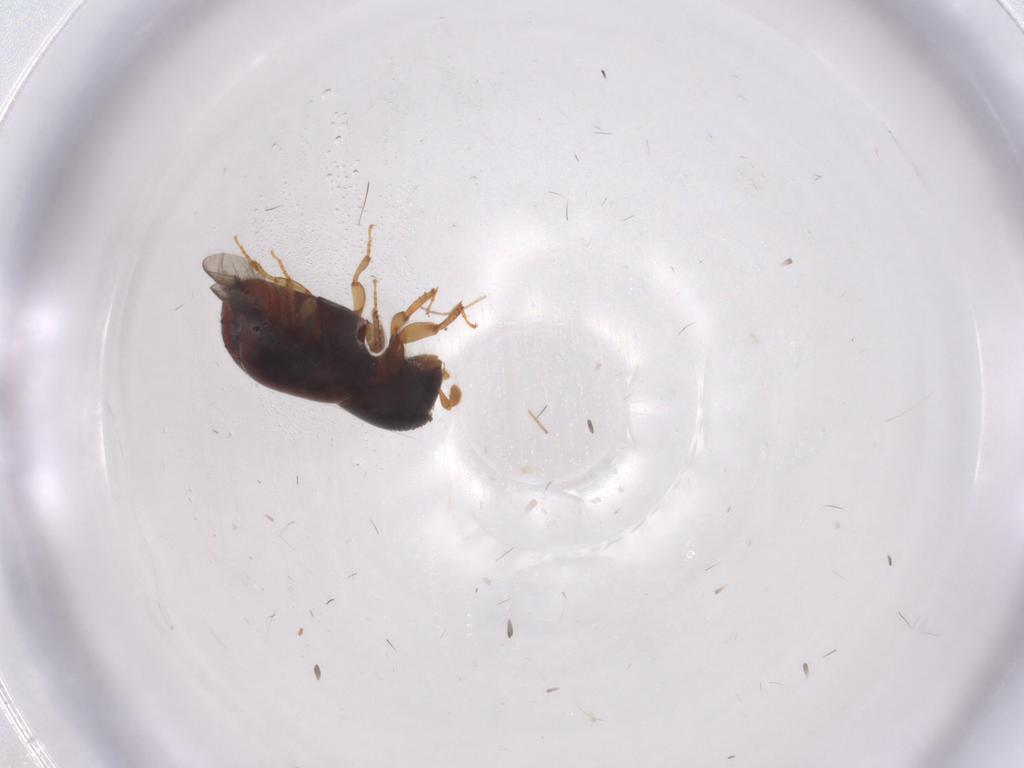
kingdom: Animalia
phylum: Arthropoda
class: Insecta
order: Coleoptera
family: Curculionidae
